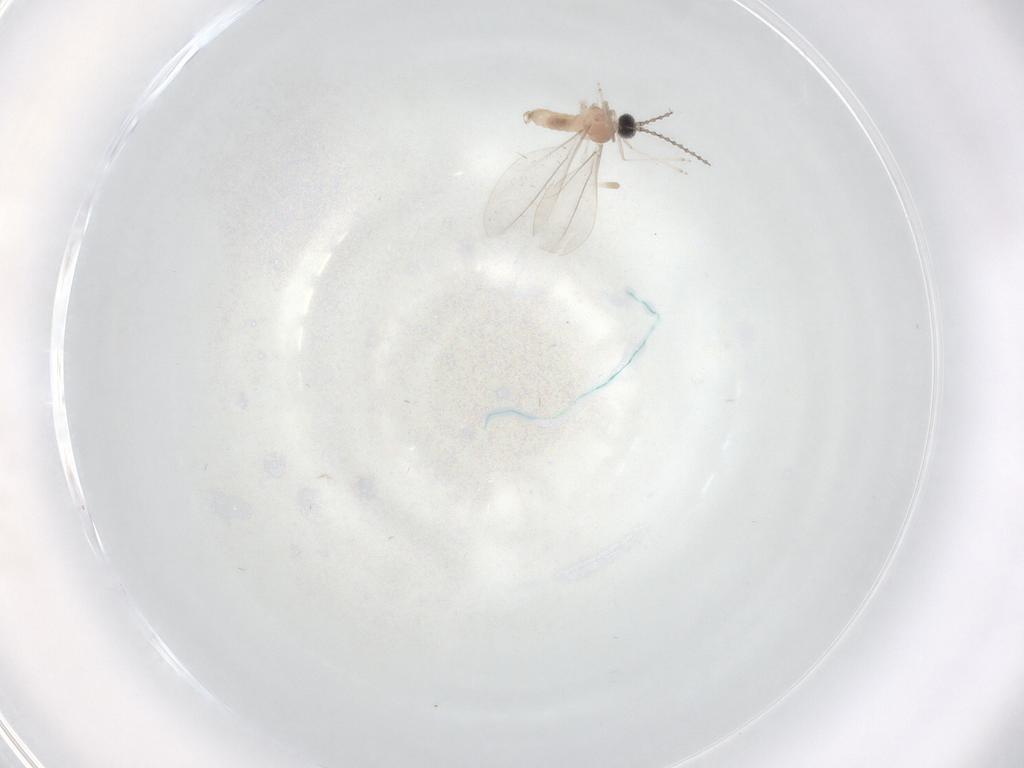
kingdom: Animalia
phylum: Arthropoda
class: Insecta
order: Diptera
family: Cecidomyiidae
